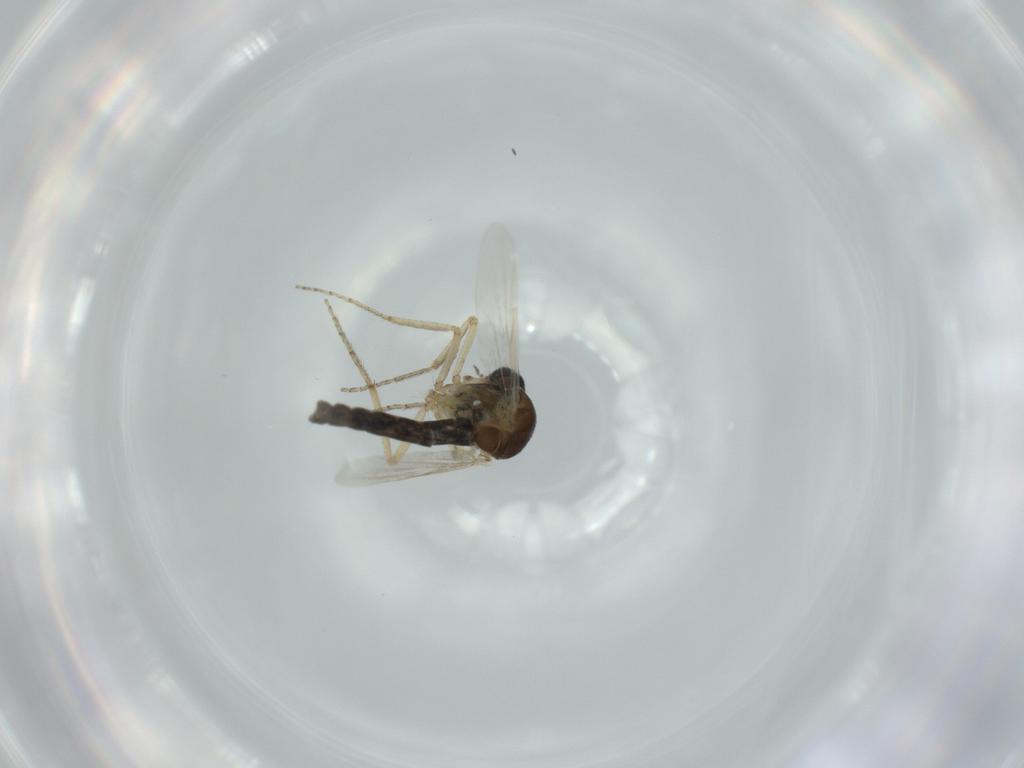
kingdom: Animalia
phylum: Arthropoda
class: Insecta
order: Diptera
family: Ceratopogonidae
